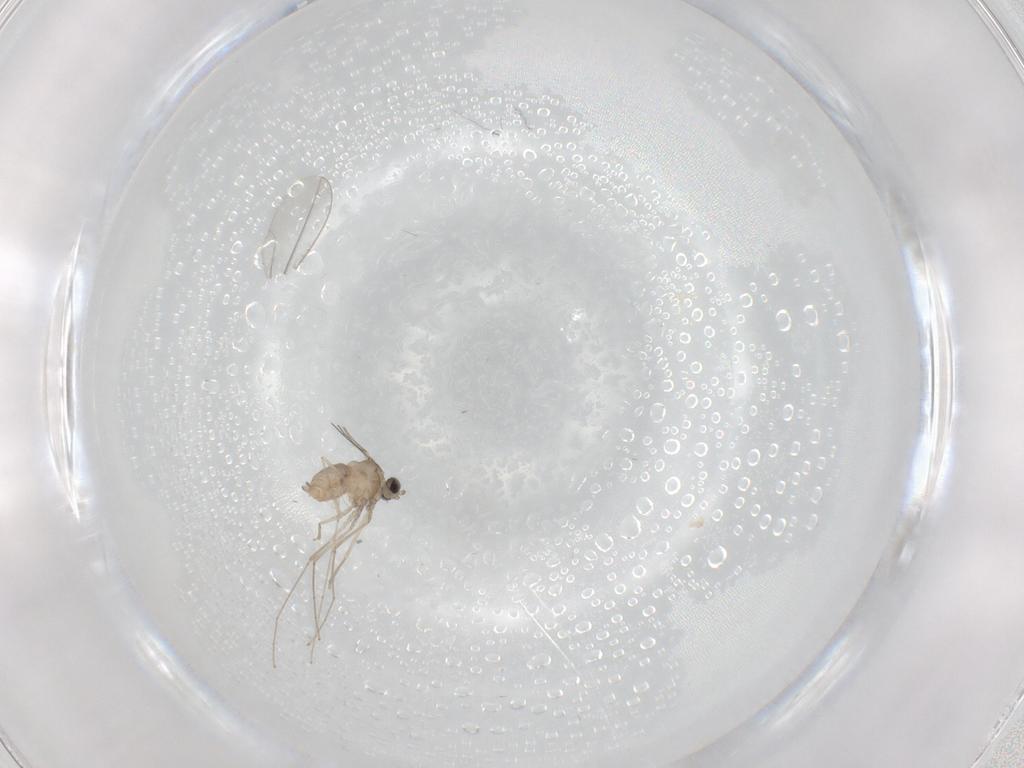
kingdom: Animalia
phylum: Arthropoda
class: Insecta
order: Diptera
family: Cecidomyiidae
